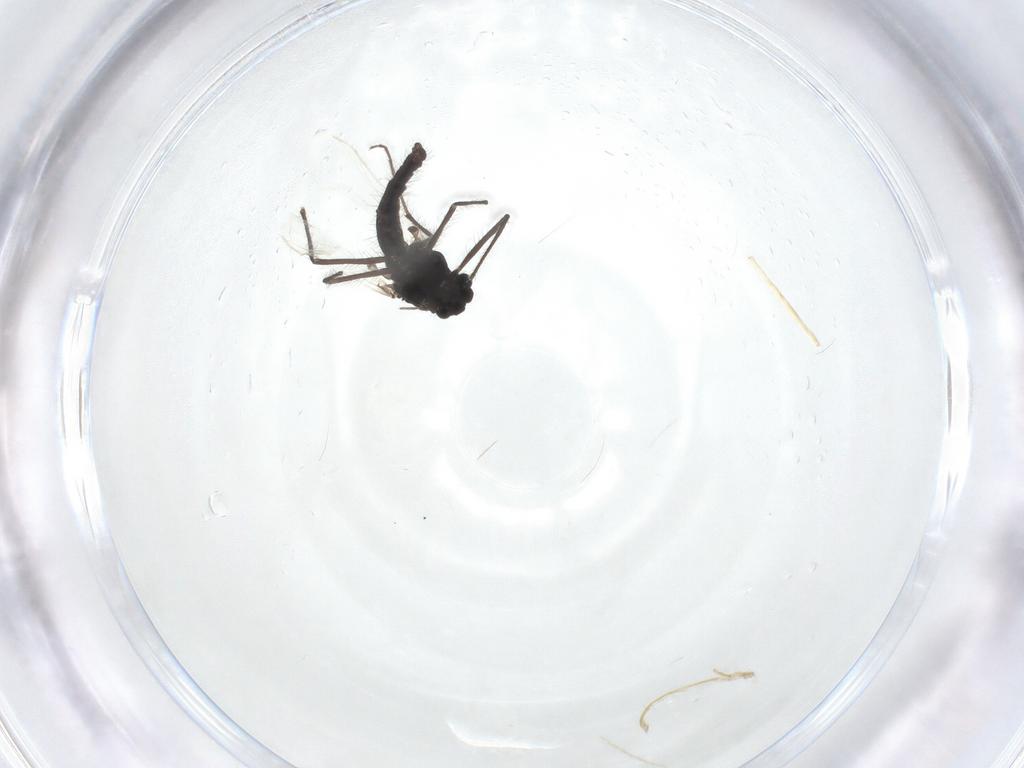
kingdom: Animalia
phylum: Arthropoda
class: Insecta
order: Diptera
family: Chironomidae
